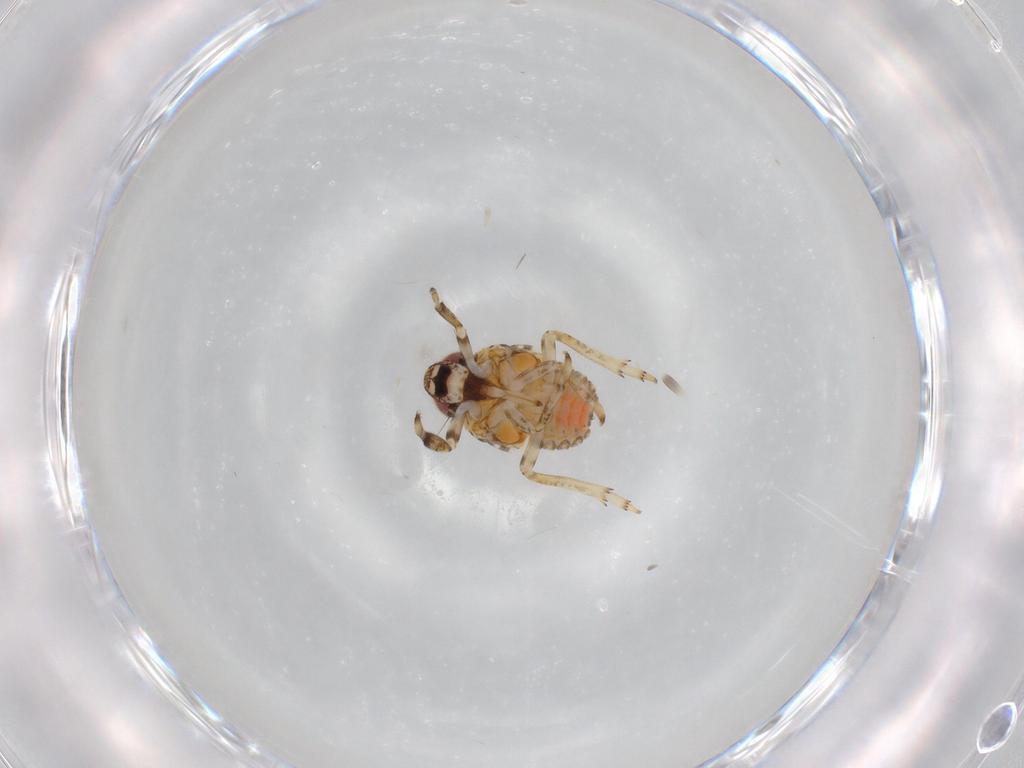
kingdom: Animalia
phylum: Arthropoda
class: Insecta
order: Hemiptera
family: Issidae
